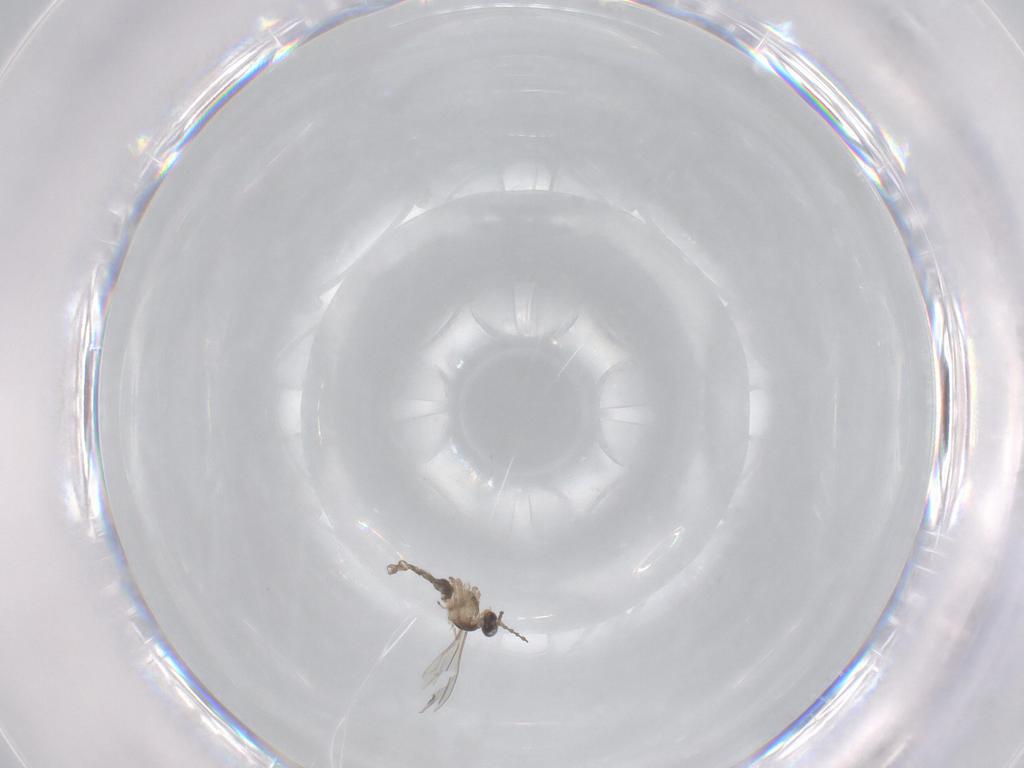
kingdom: Animalia
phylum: Arthropoda
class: Insecta
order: Diptera
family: Cecidomyiidae
